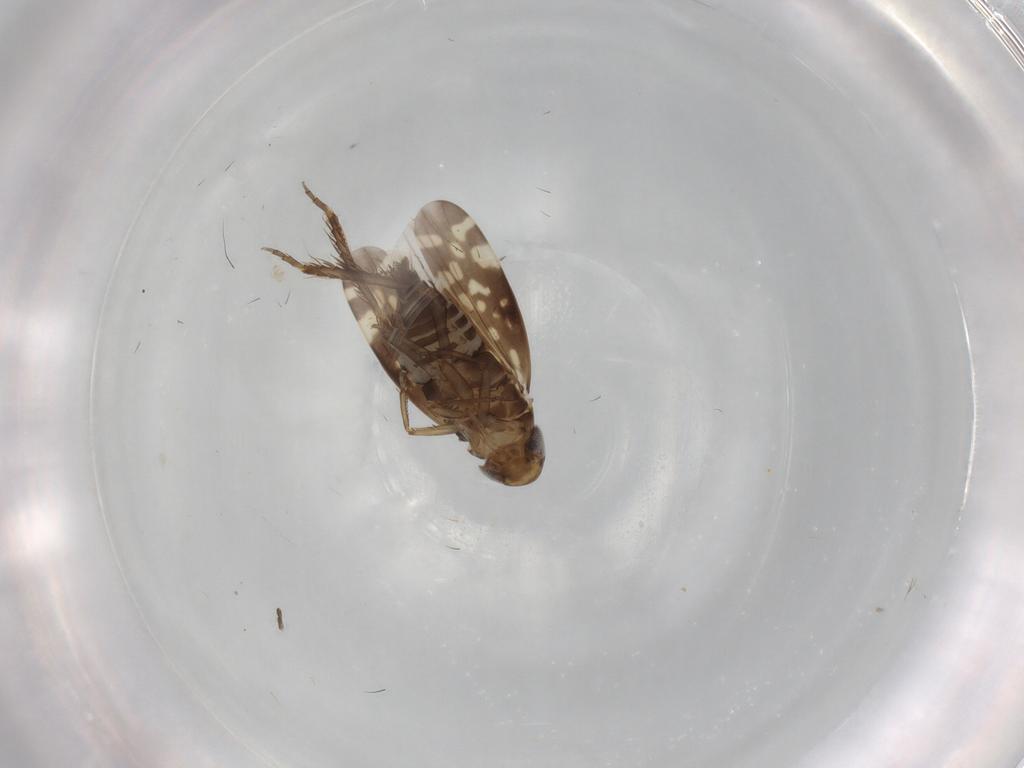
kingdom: Animalia
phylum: Arthropoda
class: Insecta
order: Hemiptera
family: Cicadellidae
